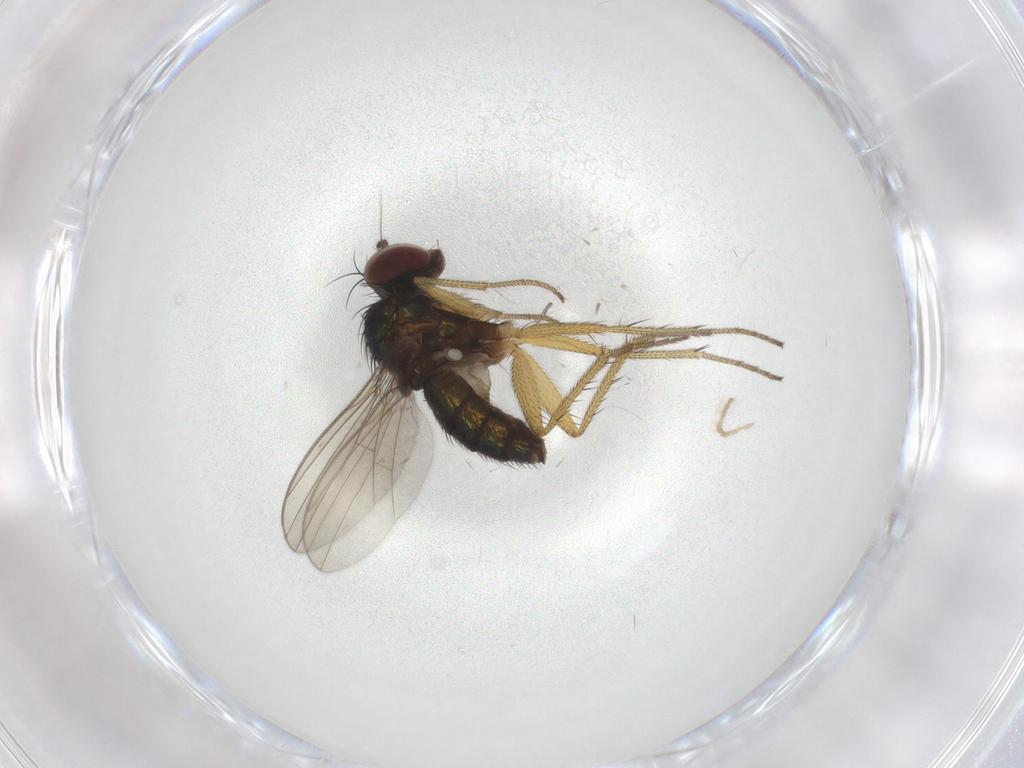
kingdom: Animalia
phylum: Arthropoda
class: Insecta
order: Diptera
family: Sciaridae
